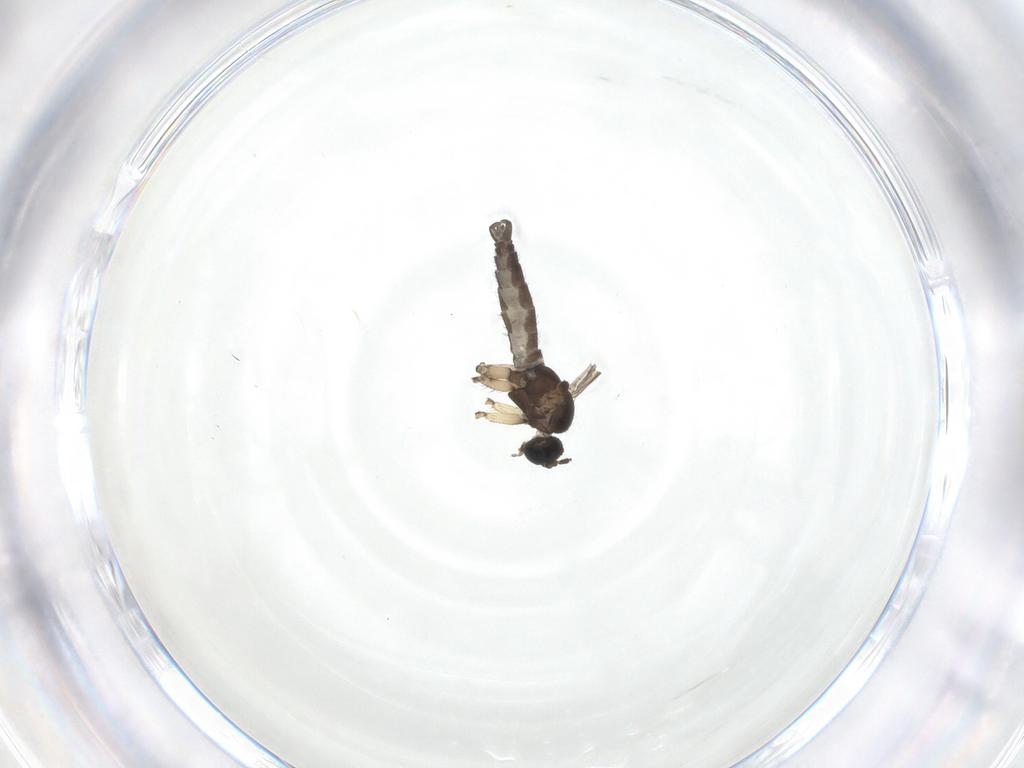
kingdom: Animalia
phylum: Arthropoda
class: Insecta
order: Diptera
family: Sciaridae
